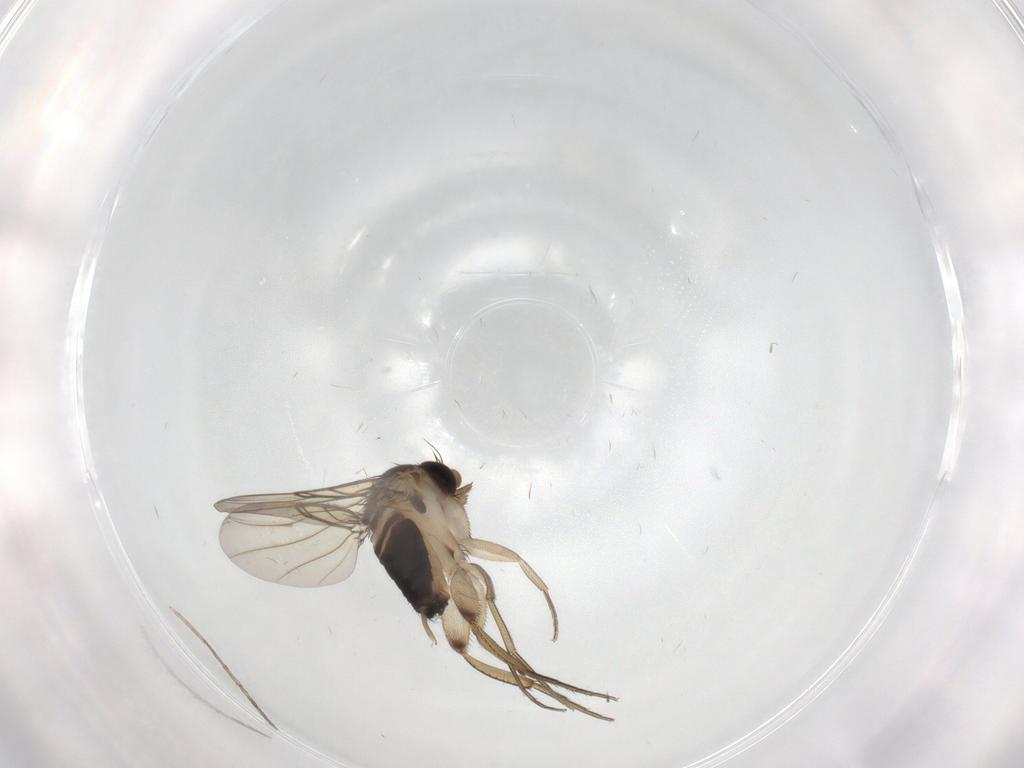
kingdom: Animalia
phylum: Arthropoda
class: Insecta
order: Diptera
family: Phoridae
